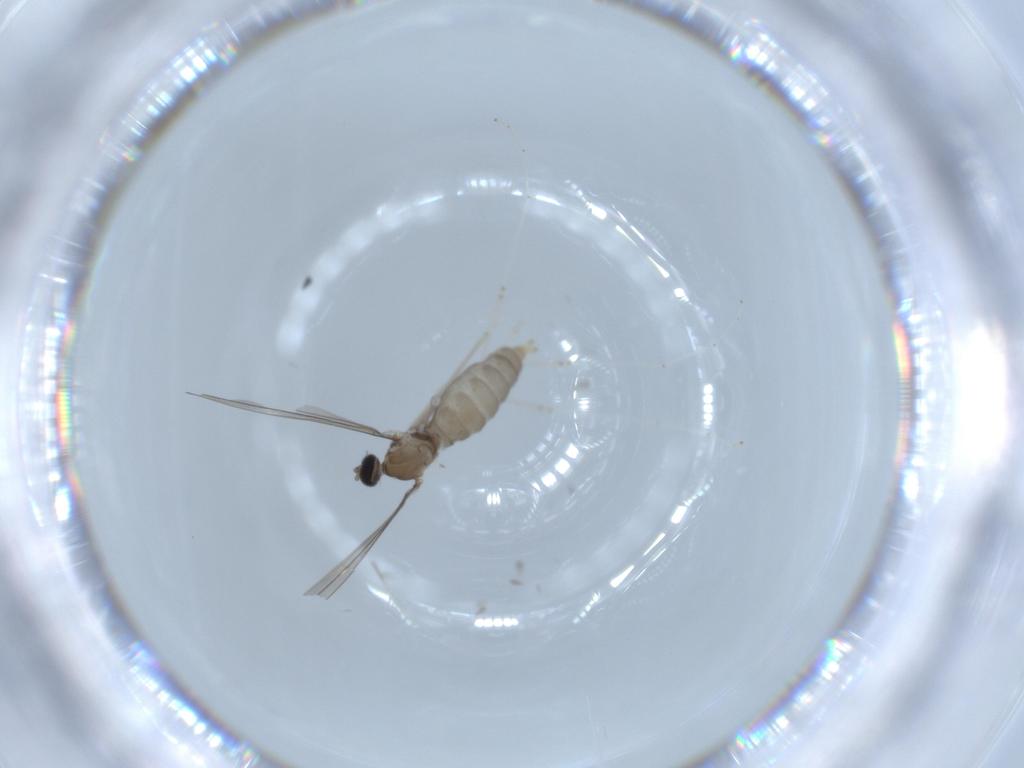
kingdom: Animalia
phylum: Arthropoda
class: Insecta
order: Diptera
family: Cecidomyiidae
